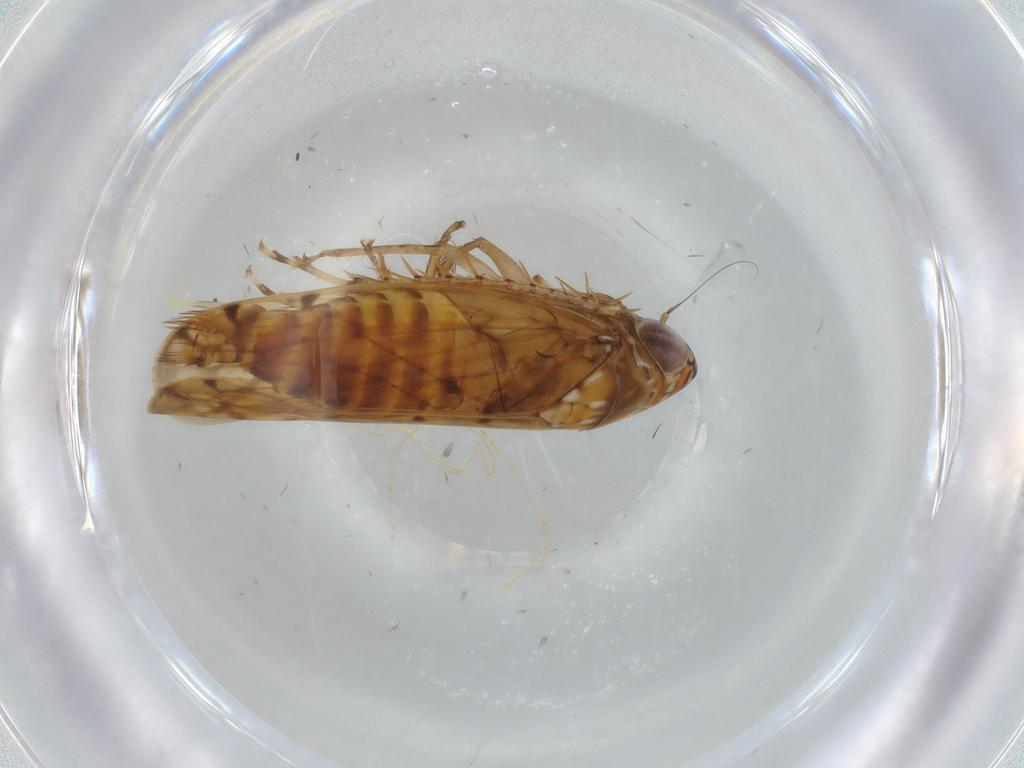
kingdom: Animalia
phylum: Arthropoda
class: Insecta
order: Hemiptera
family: Cicadellidae
